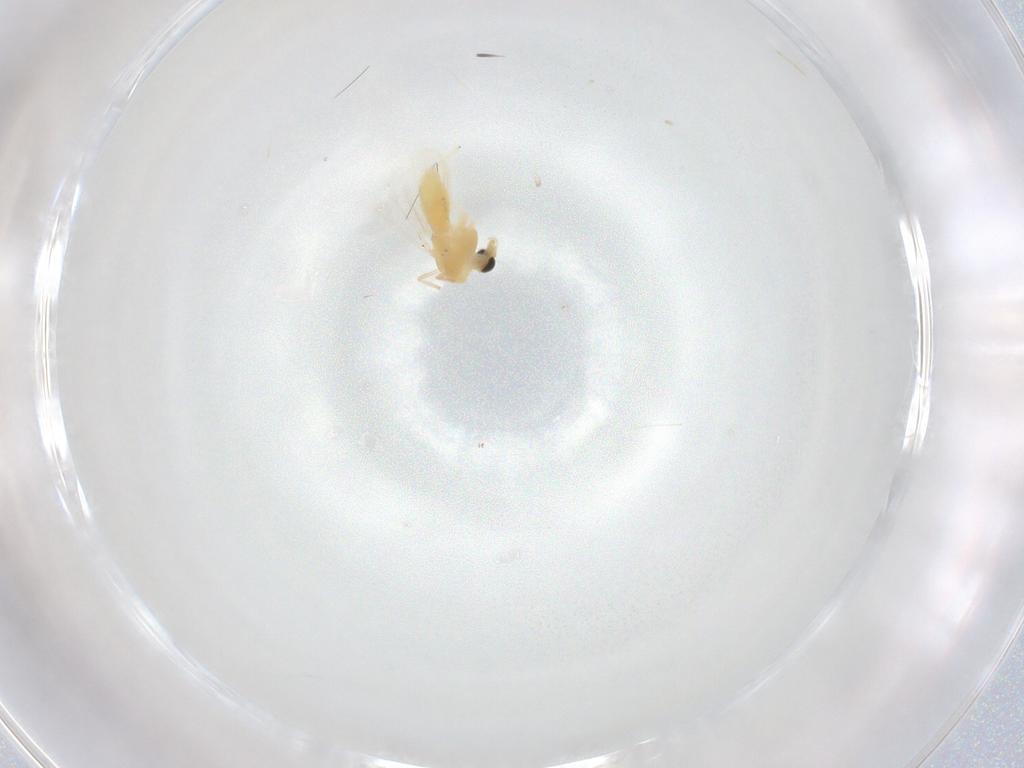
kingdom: Animalia
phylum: Arthropoda
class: Insecta
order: Diptera
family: Chironomidae
